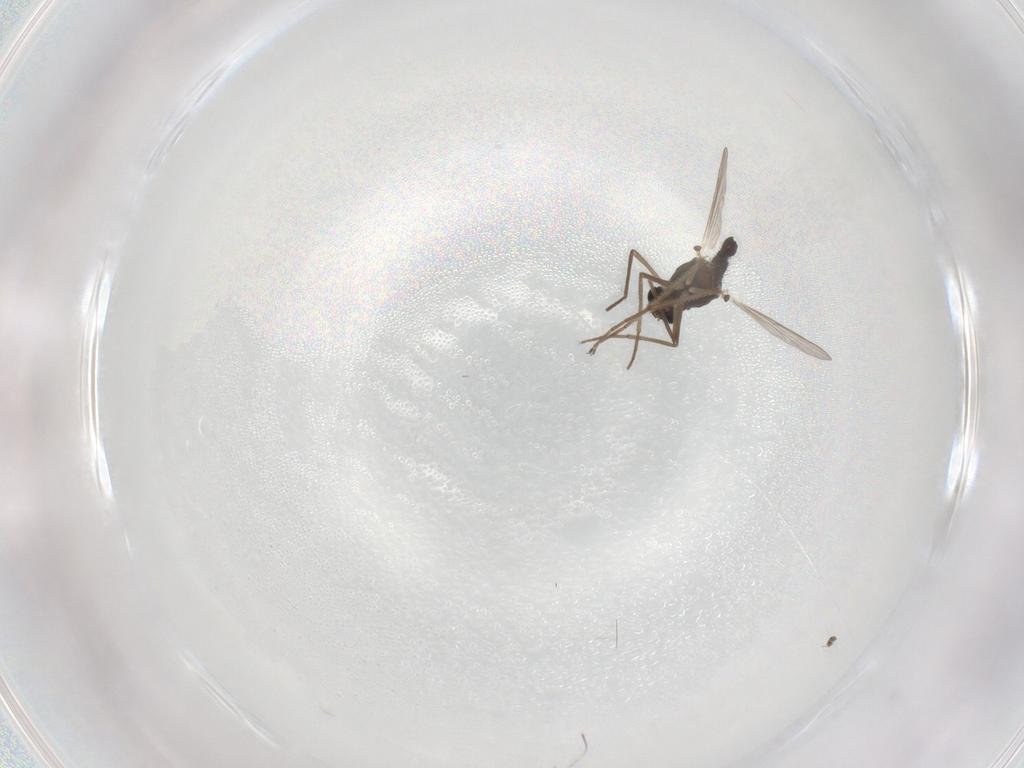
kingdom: Animalia
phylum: Arthropoda
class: Insecta
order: Diptera
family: Chironomidae
